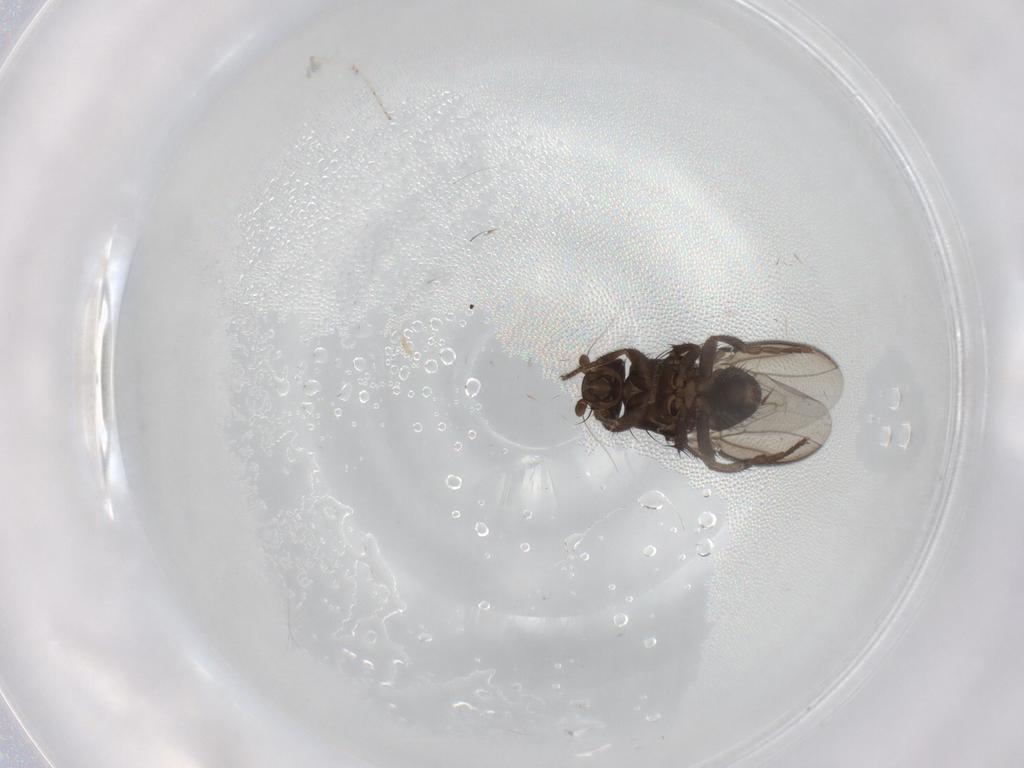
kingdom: Animalia
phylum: Arthropoda
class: Insecta
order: Diptera
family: Sphaeroceridae
